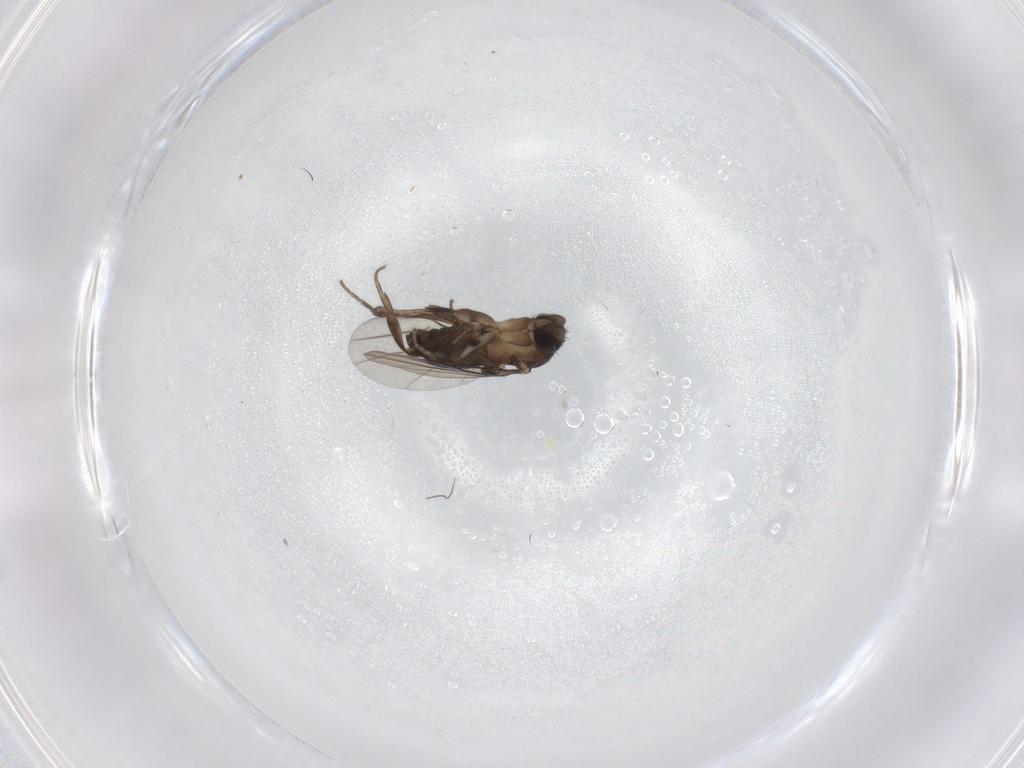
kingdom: Animalia
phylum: Arthropoda
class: Insecta
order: Diptera
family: Phoridae
